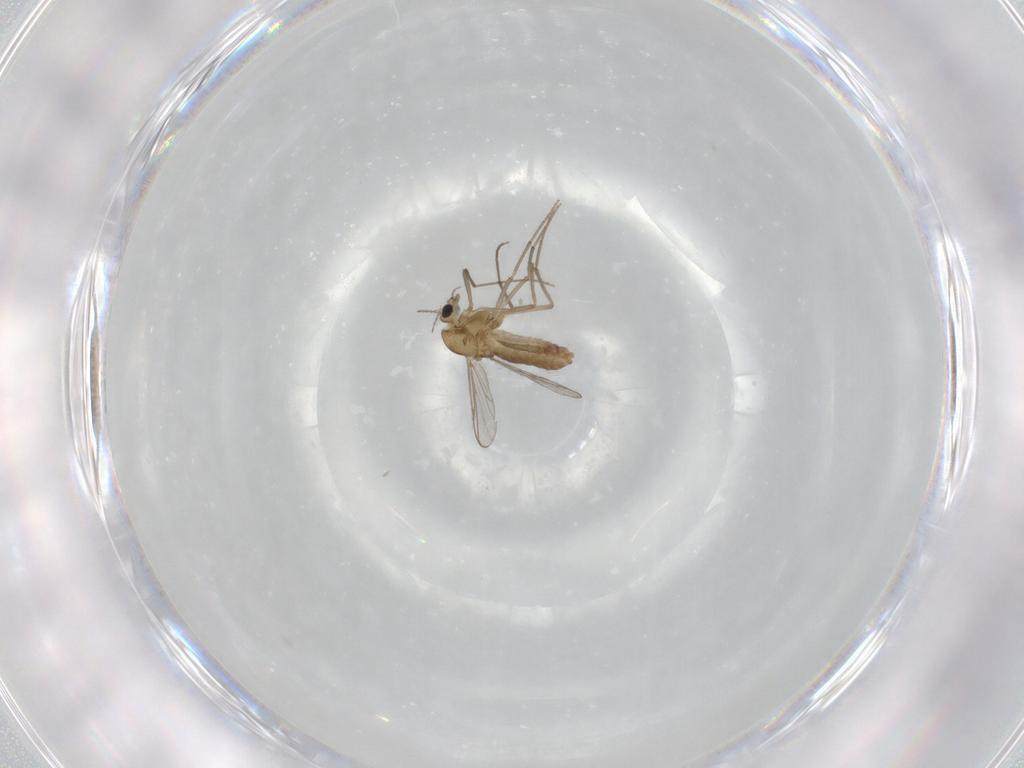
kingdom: Animalia
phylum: Arthropoda
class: Insecta
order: Diptera
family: Chironomidae
